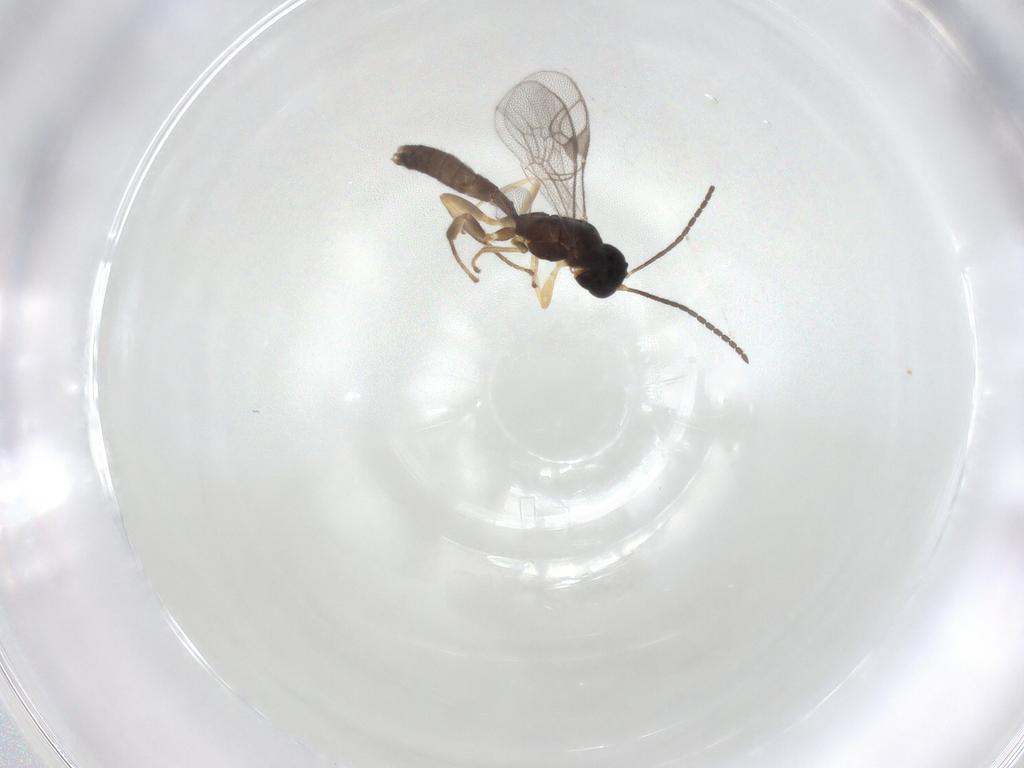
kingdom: Animalia
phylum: Arthropoda
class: Insecta
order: Hymenoptera
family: Ichneumonidae
